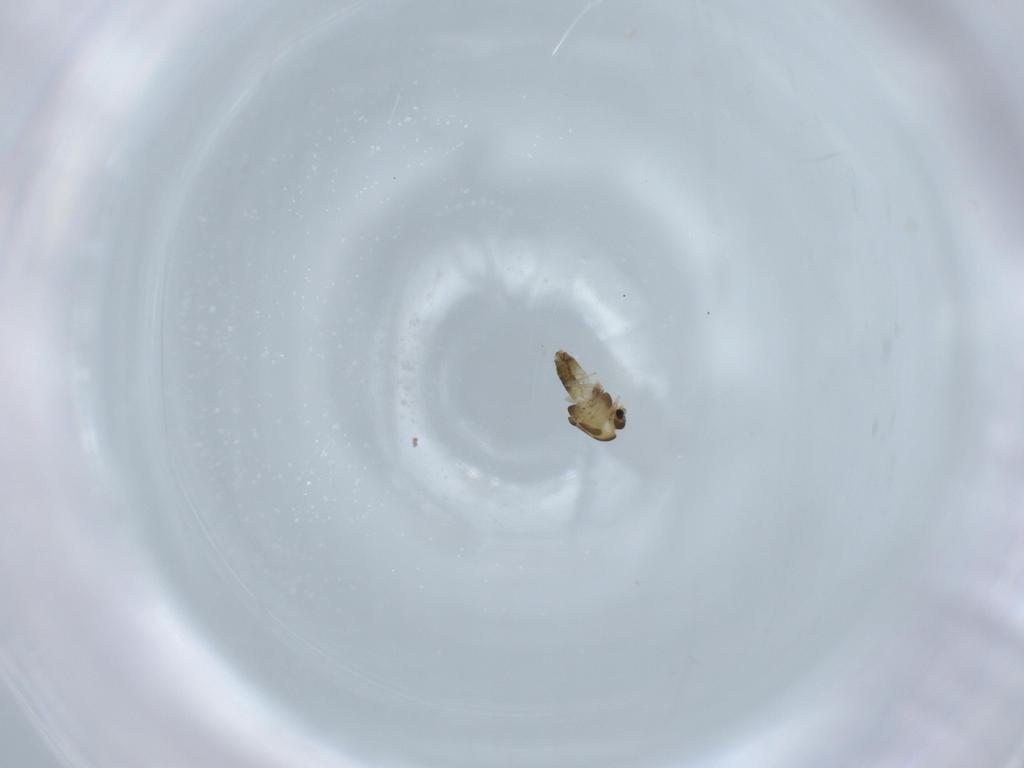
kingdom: Animalia
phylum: Arthropoda
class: Insecta
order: Diptera
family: Chironomidae
